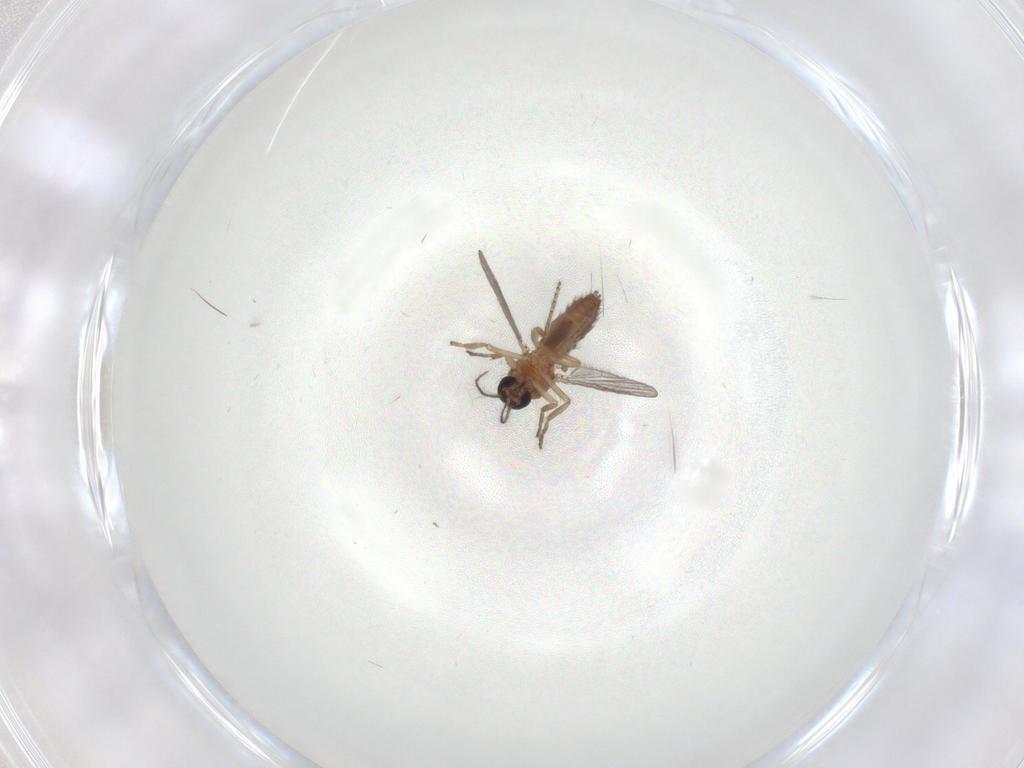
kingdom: Animalia
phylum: Arthropoda
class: Insecta
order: Diptera
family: Ceratopogonidae
